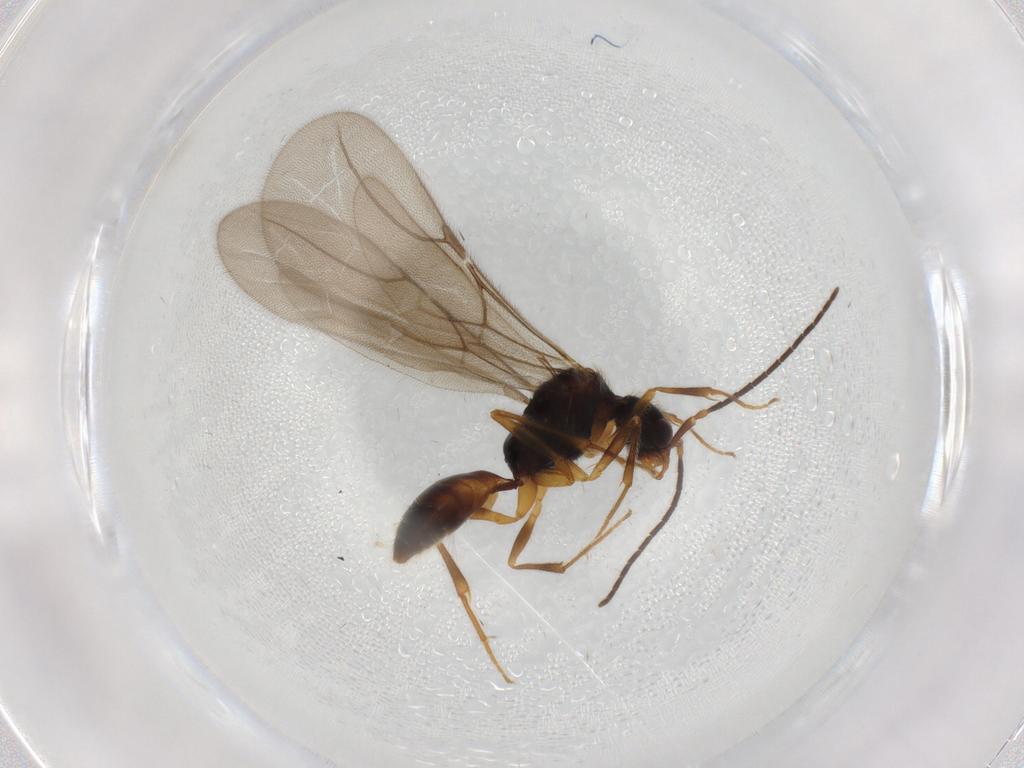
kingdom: Animalia
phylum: Arthropoda
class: Insecta
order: Hymenoptera
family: Bethylidae
